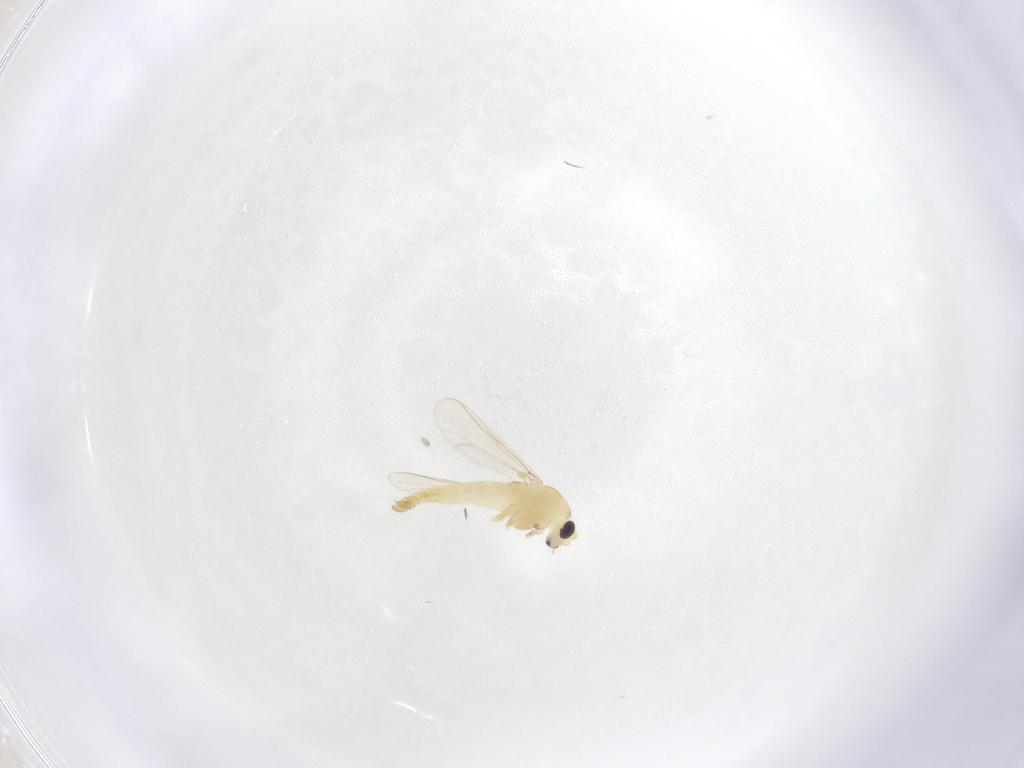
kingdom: Animalia
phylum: Arthropoda
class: Insecta
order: Diptera
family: Chironomidae
